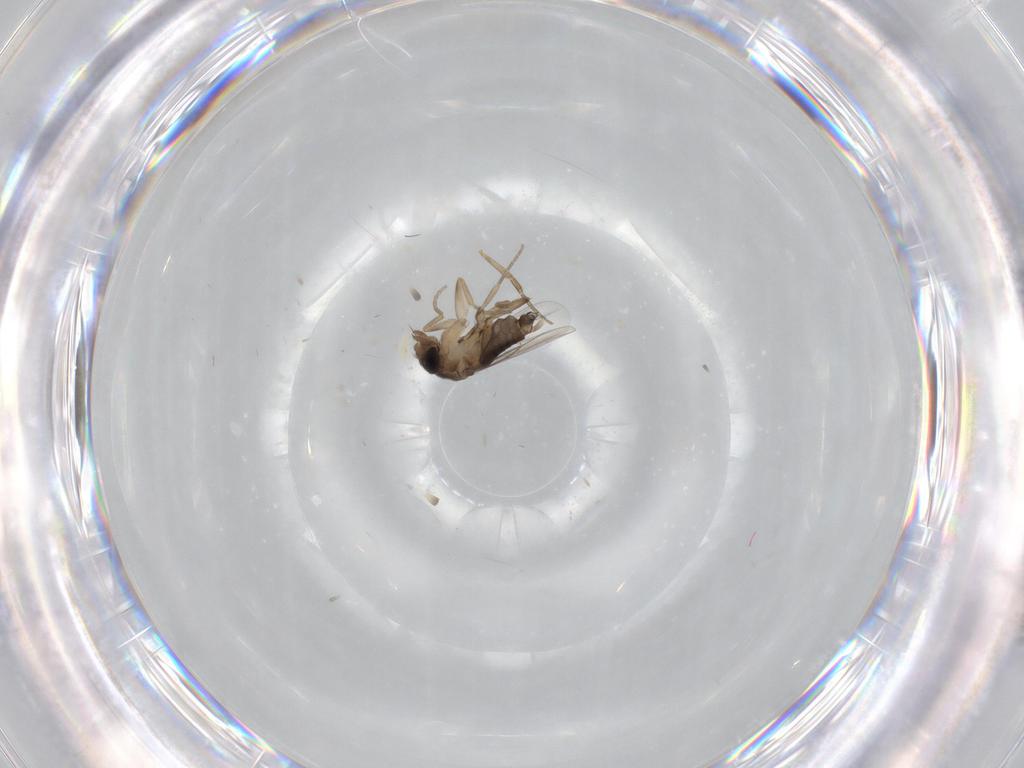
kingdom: Animalia
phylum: Arthropoda
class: Insecta
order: Diptera
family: Phoridae
